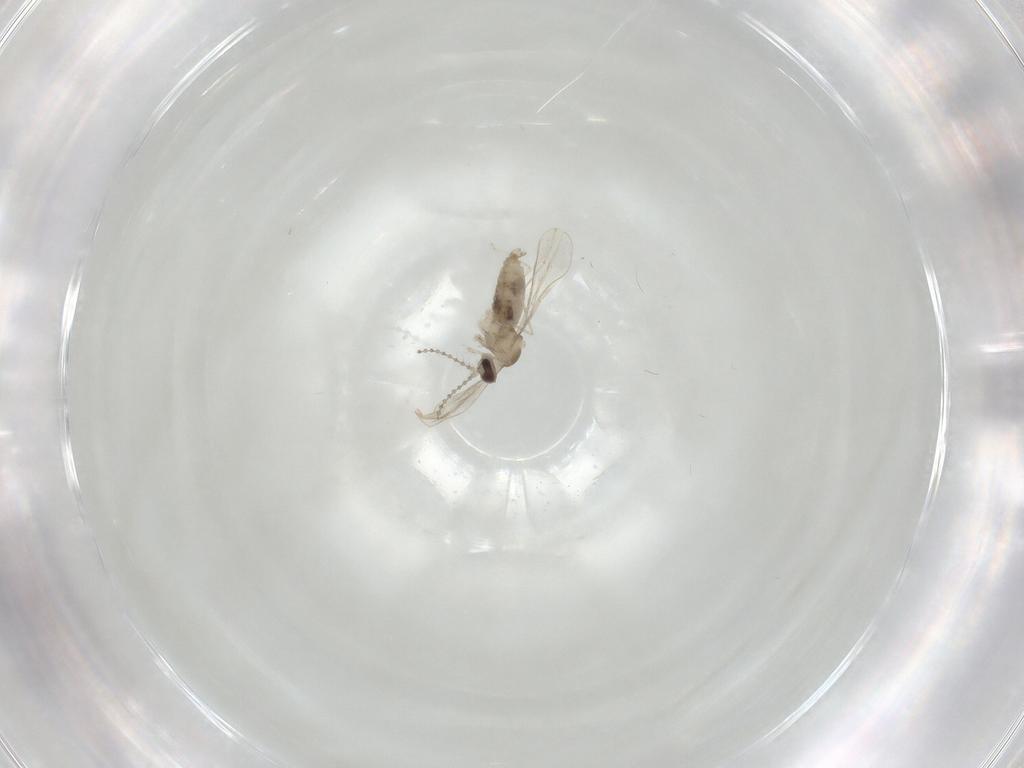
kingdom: Animalia
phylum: Arthropoda
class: Insecta
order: Diptera
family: Cecidomyiidae
